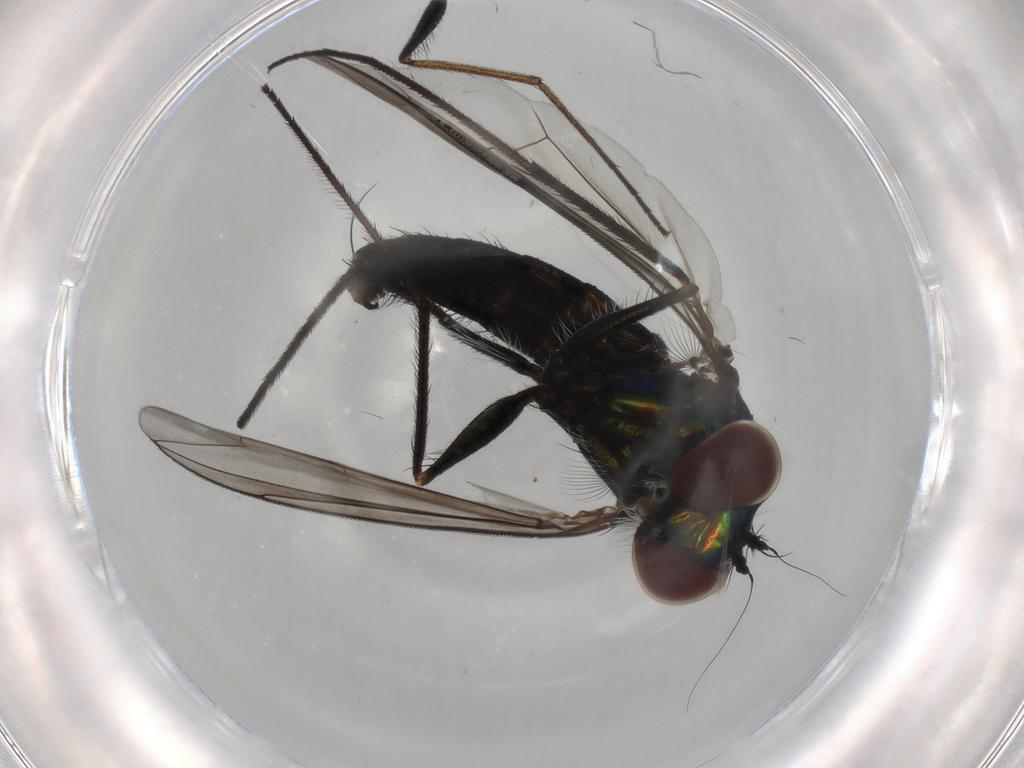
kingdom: Animalia
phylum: Arthropoda
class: Insecta
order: Diptera
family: Dolichopodidae
